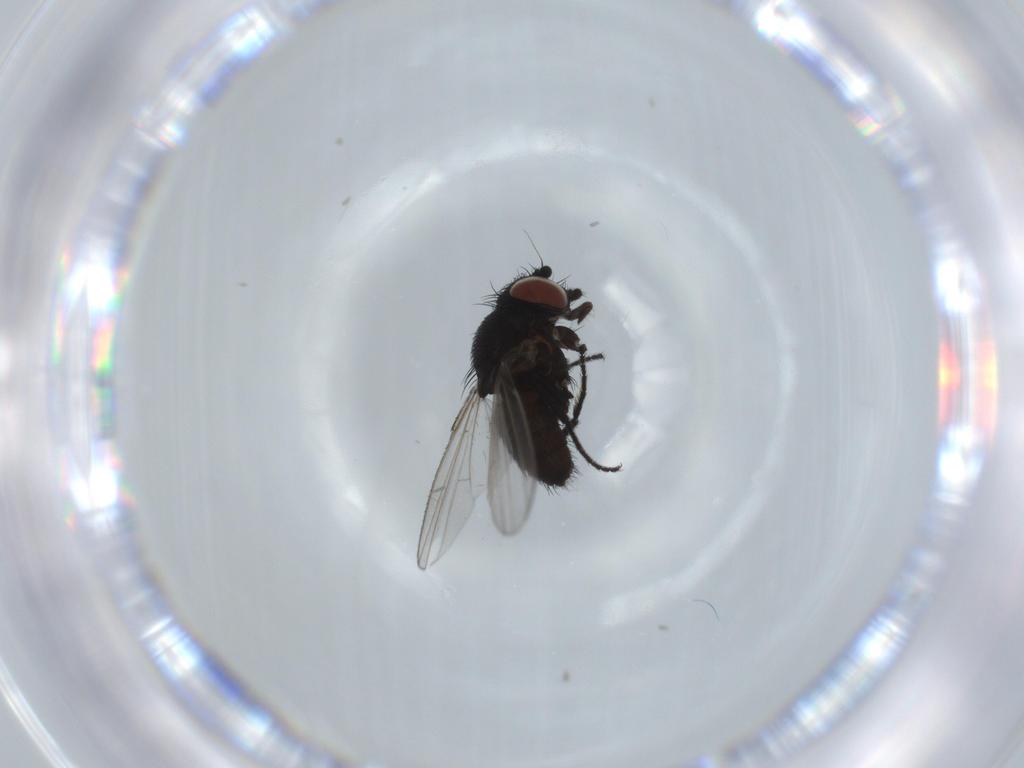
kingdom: Animalia
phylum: Arthropoda
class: Insecta
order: Diptera
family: Milichiidae
